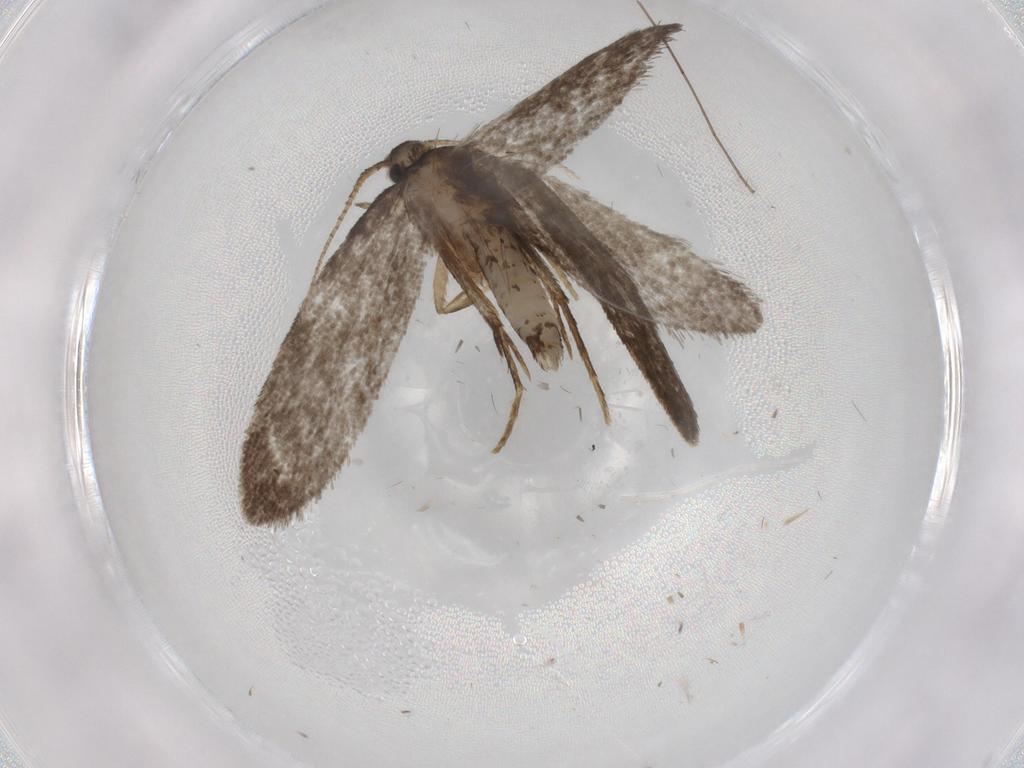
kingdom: Animalia
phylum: Arthropoda
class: Insecta
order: Lepidoptera
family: Psychidae
